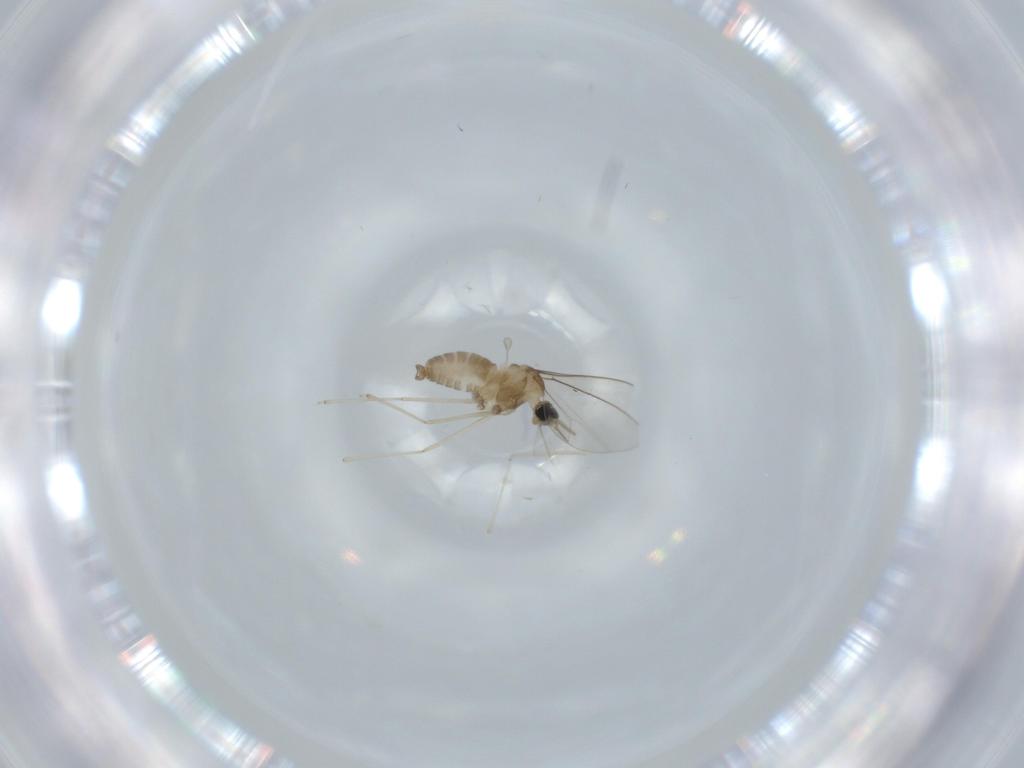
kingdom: Animalia
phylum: Arthropoda
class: Insecta
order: Diptera
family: Cecidomyiidae
